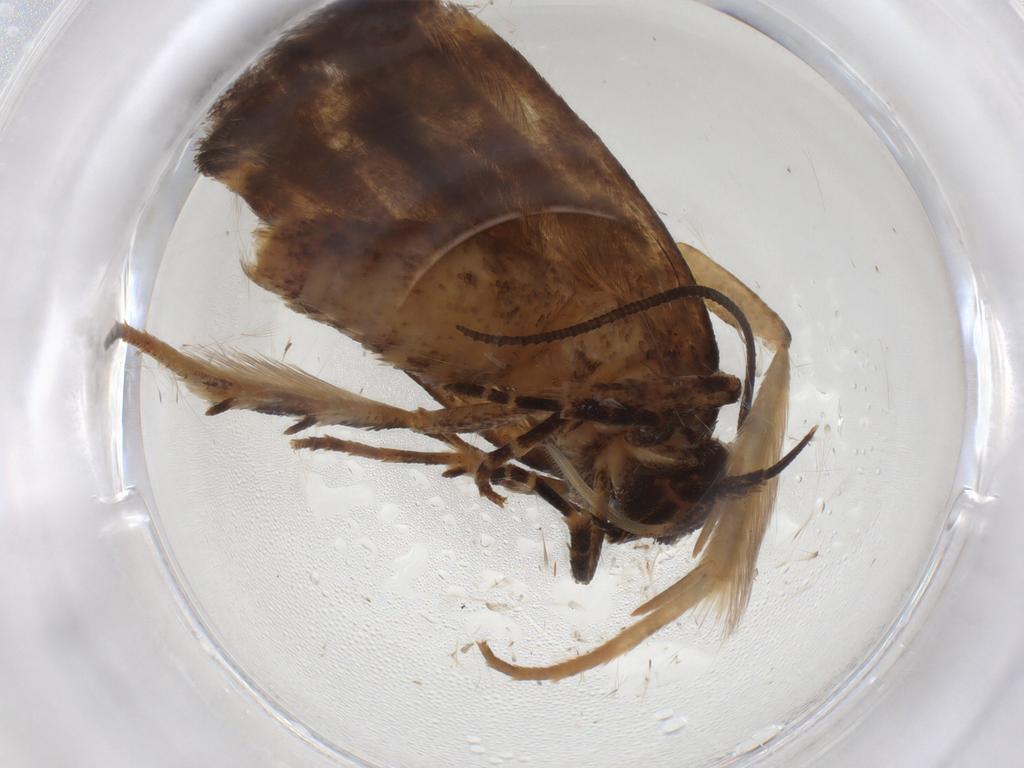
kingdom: Animalia
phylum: Arthropoda
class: Insecta
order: Lepidoptera
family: Gelechiidae
